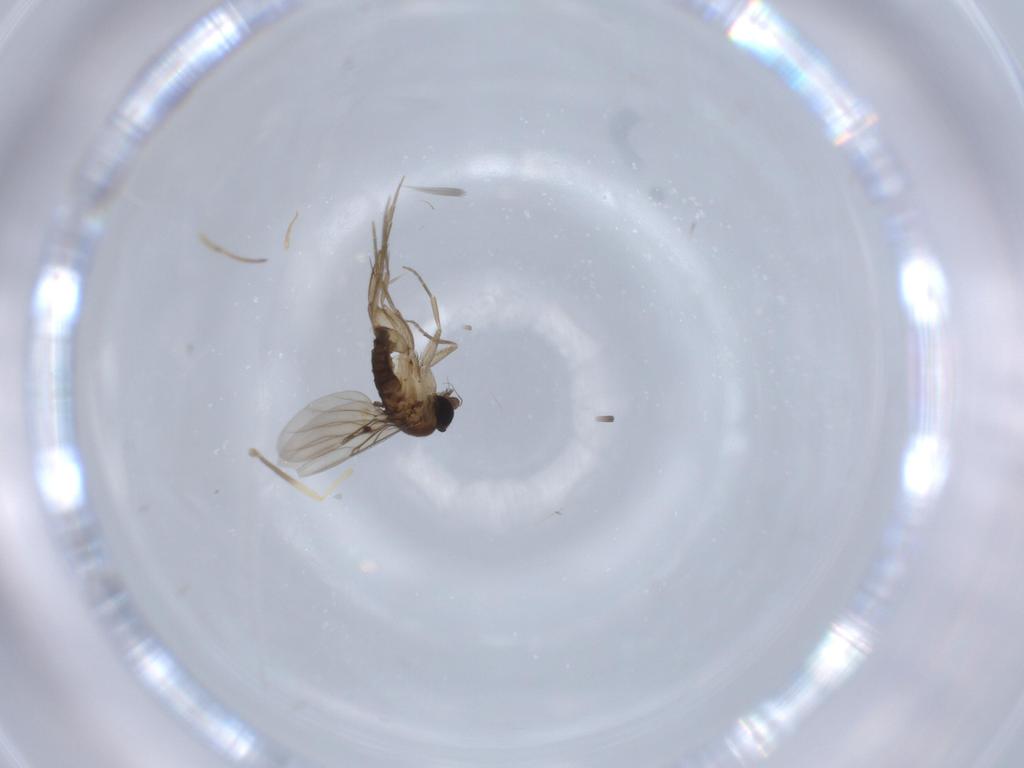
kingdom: Animalia
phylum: Arthropoda
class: Insecta
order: Diptera
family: Chironomidae
